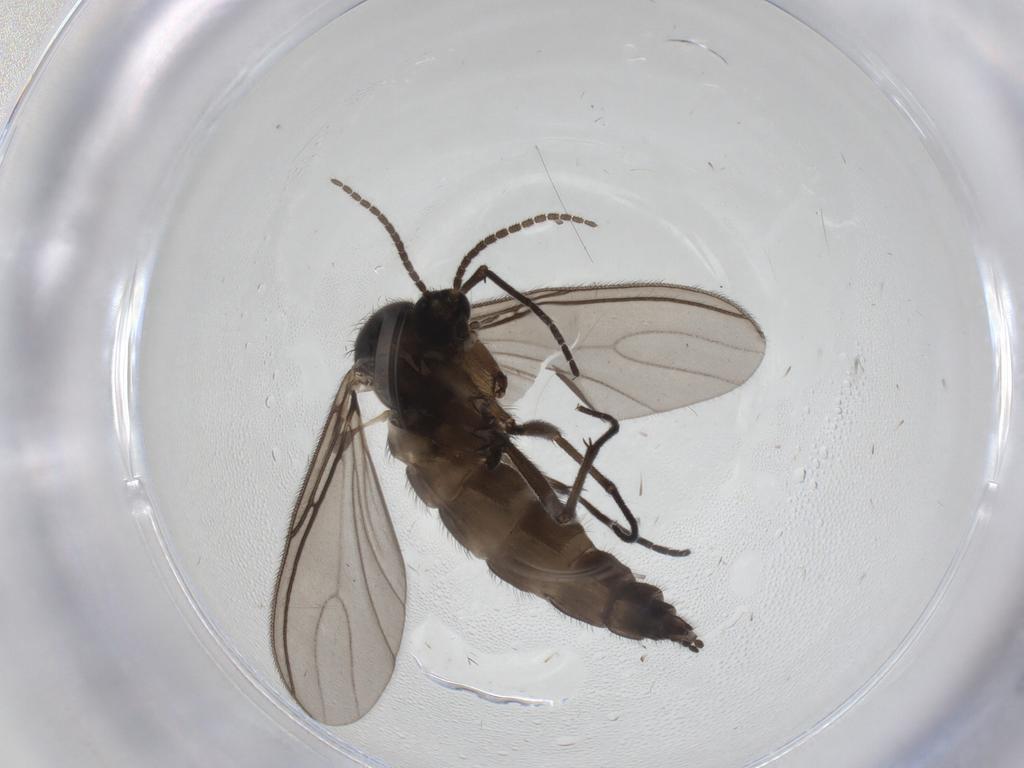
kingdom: Animalia
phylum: Arthropoda
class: Insecta
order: Diptera
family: Sciaridae
